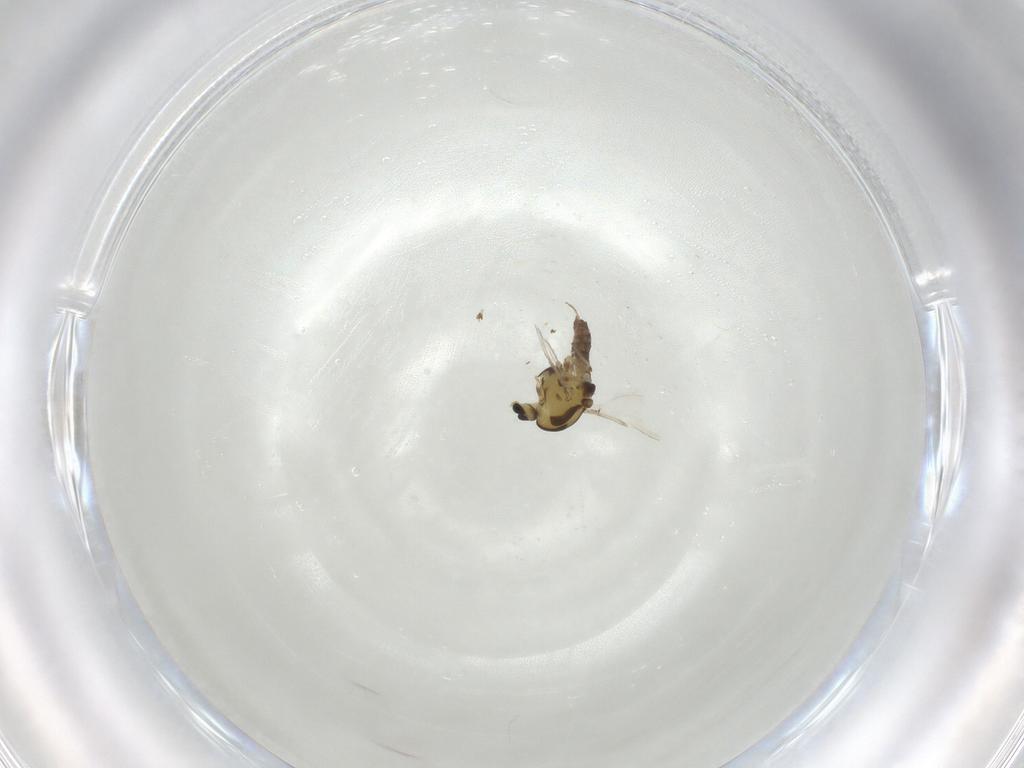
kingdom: Animalia
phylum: Arthropoda
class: Insecta
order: Diptera
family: Chironomidae
